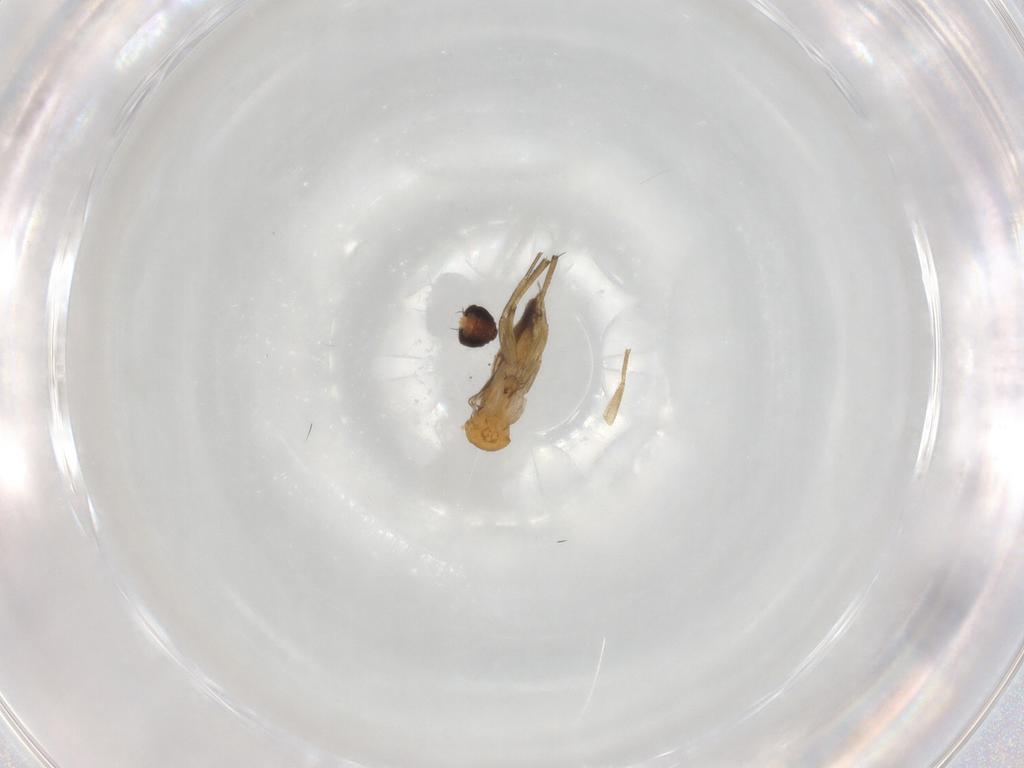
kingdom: Animalia
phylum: Arthropoda
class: Insecta
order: Diptera
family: Phoridae
